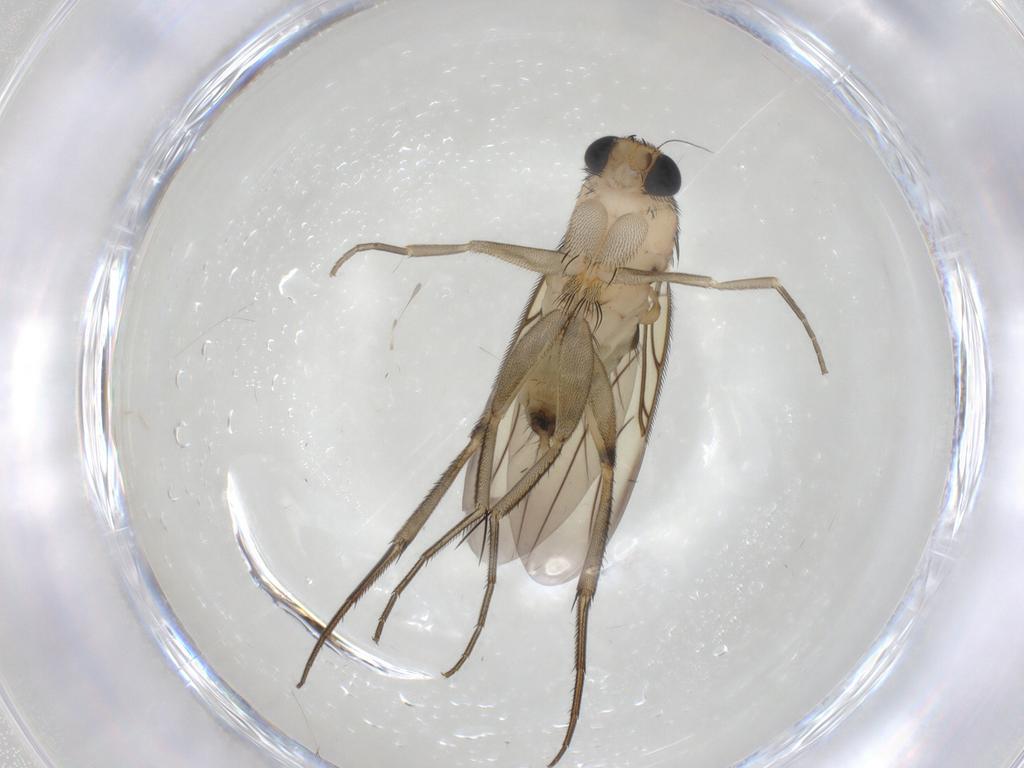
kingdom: Animalia
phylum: Arthropoda
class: Insecta
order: Diptera
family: Phoridae
